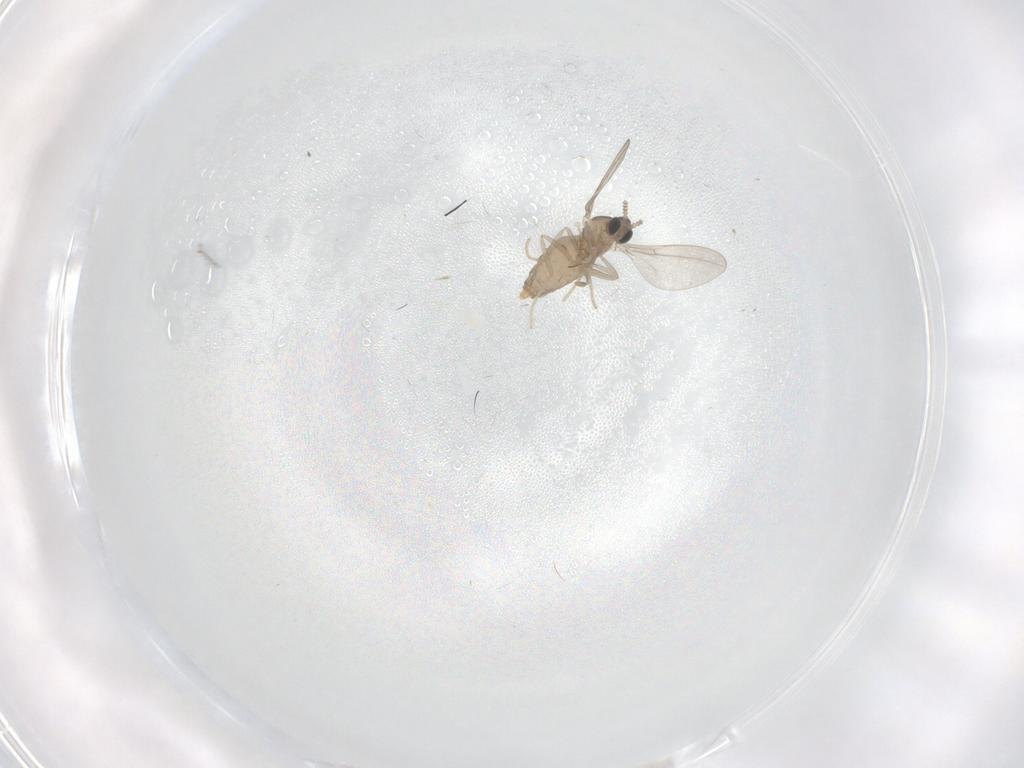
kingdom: Animalia
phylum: Arthropoda
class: Insecta
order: Diptera
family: Cecidomyiidae
